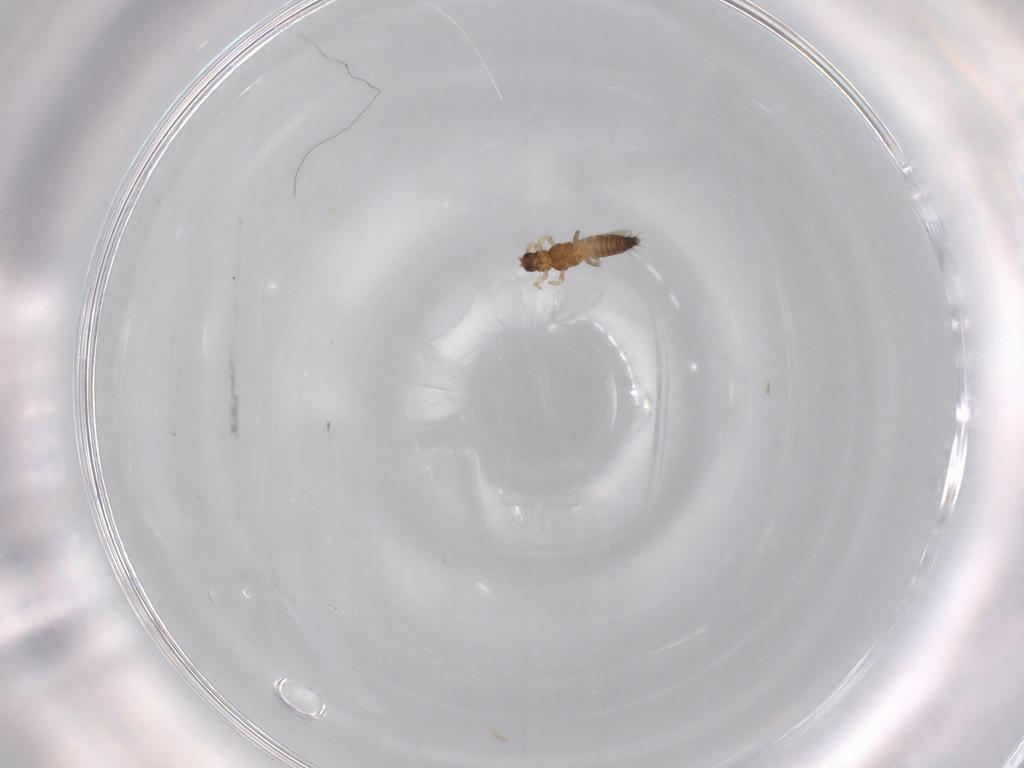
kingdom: Animalia
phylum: Arthropoda
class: Insecta
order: Thysanoptera
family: Thripidae
